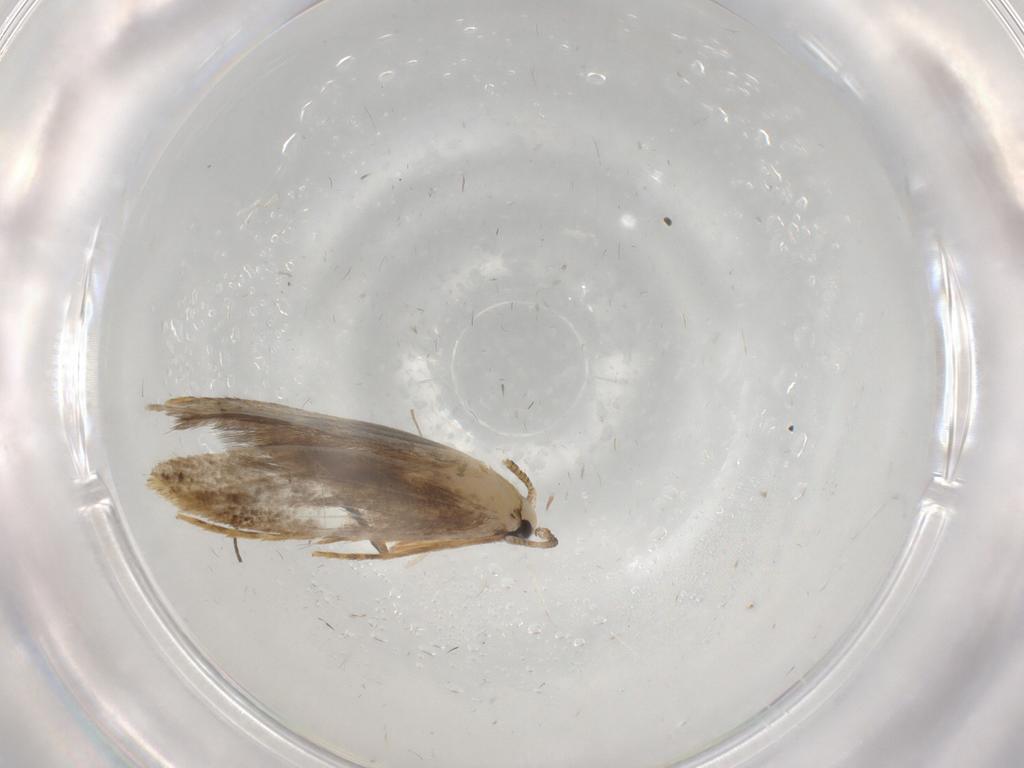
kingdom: Animalia
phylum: Arthropoda
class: Insecta
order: Lepidoptera
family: Tineidae
